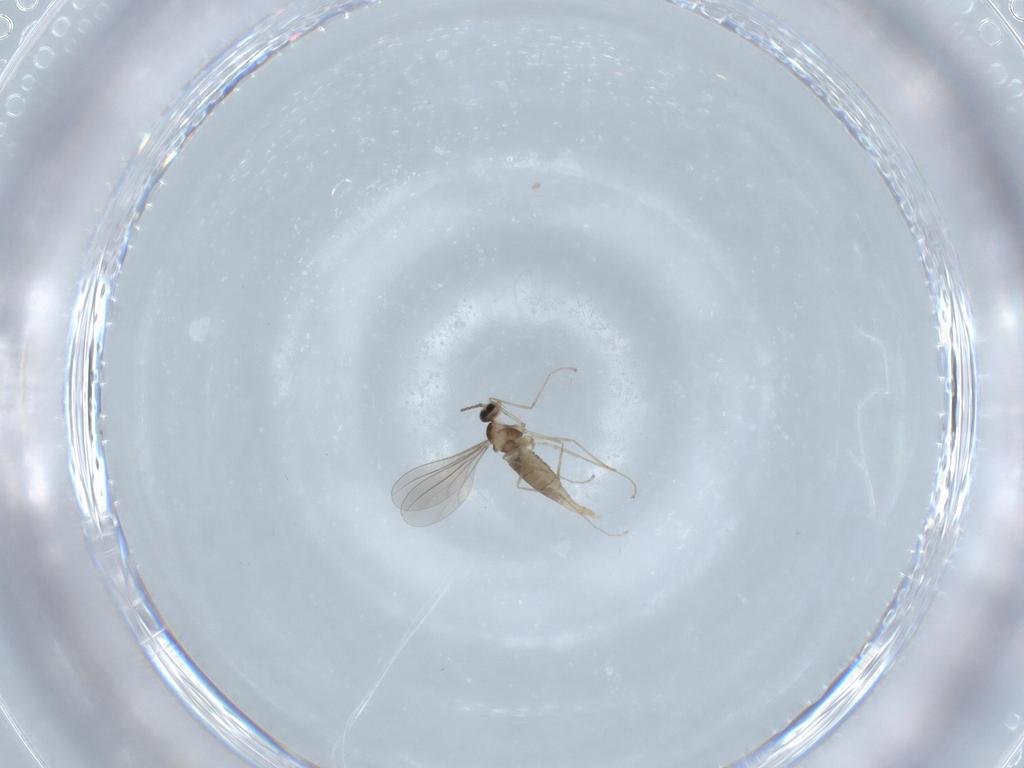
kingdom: Animalia
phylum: Arthropoda
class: Insecta
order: Diptera
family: Sciaridae
